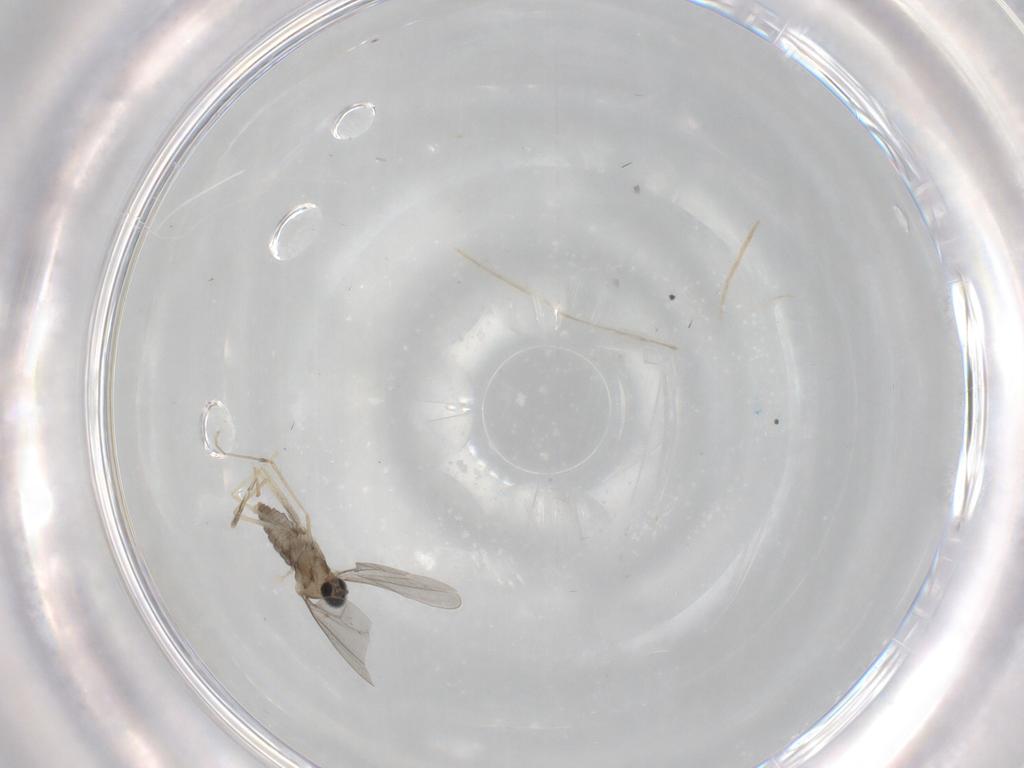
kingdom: Animalia
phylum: Arthropoda
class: Insecta
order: Diptera
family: Cecidomyiidae
